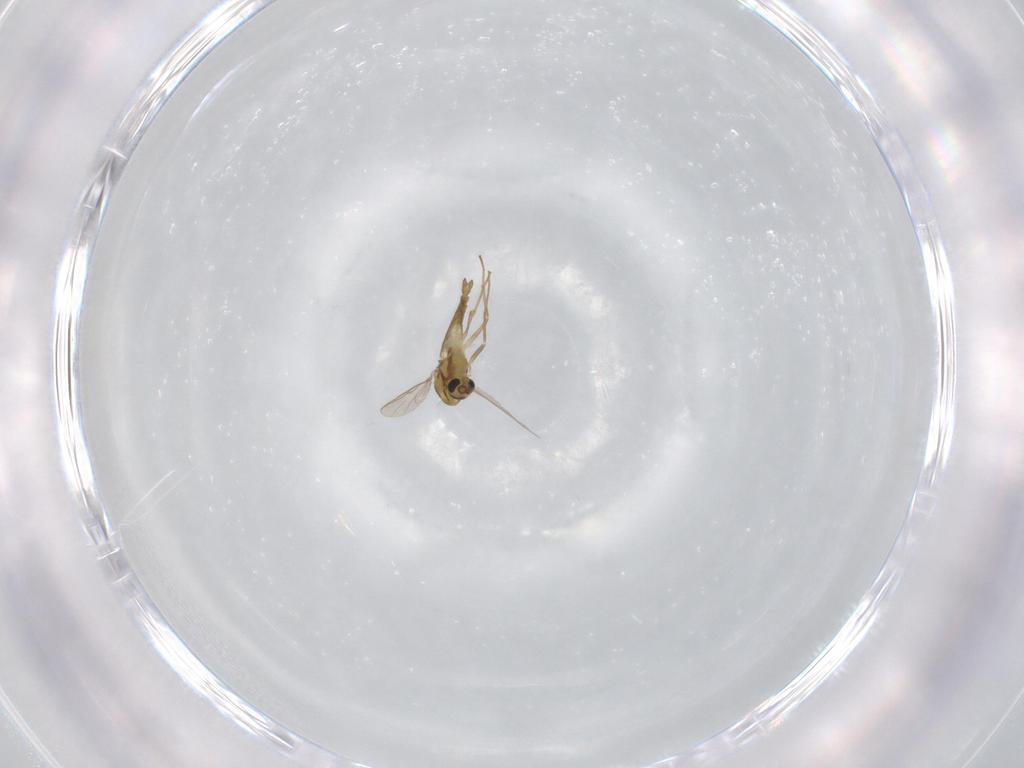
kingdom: Animalia
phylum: Arthropoda
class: Insecta
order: Diptera
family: Chironomidae
